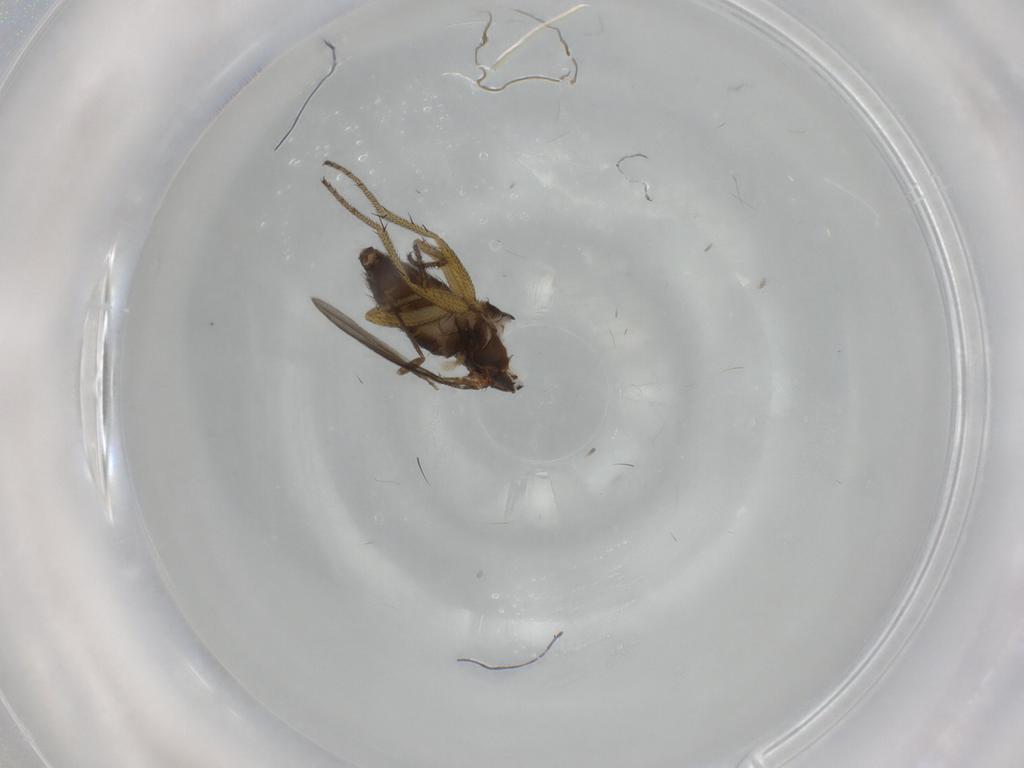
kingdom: Animalia
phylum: Arthropoda
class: Insecta
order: Diptera
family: Dolichopodidae
